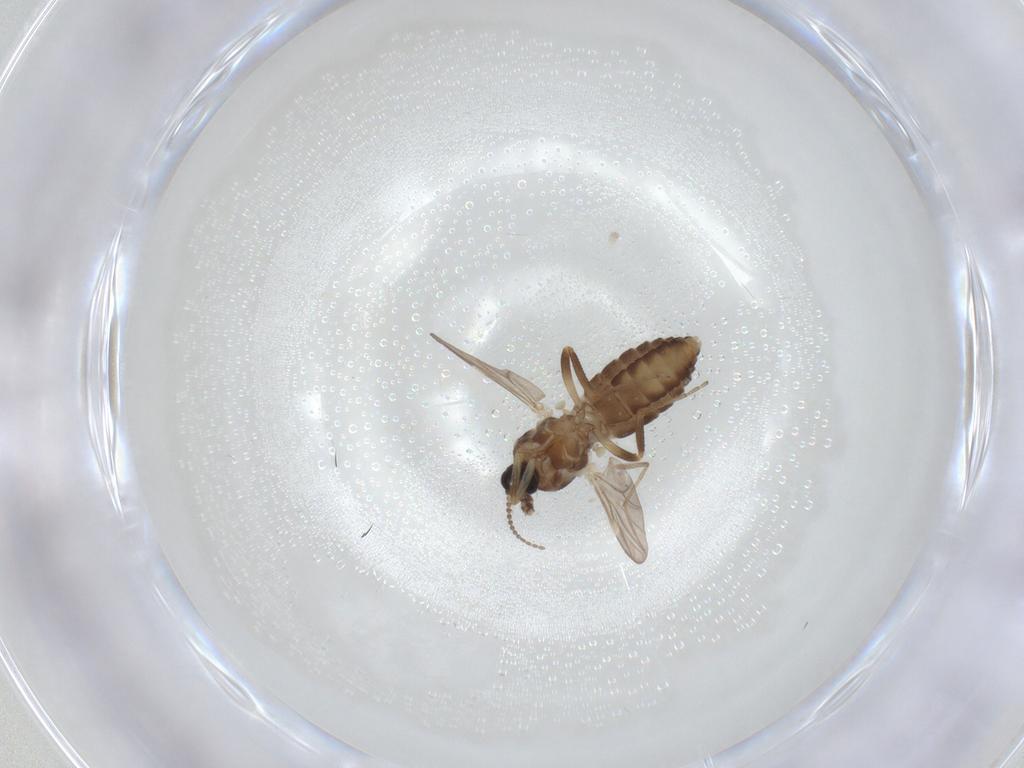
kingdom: Animalia
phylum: Arthropoda
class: Insecta
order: Diptera
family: Ceratopogonidae
